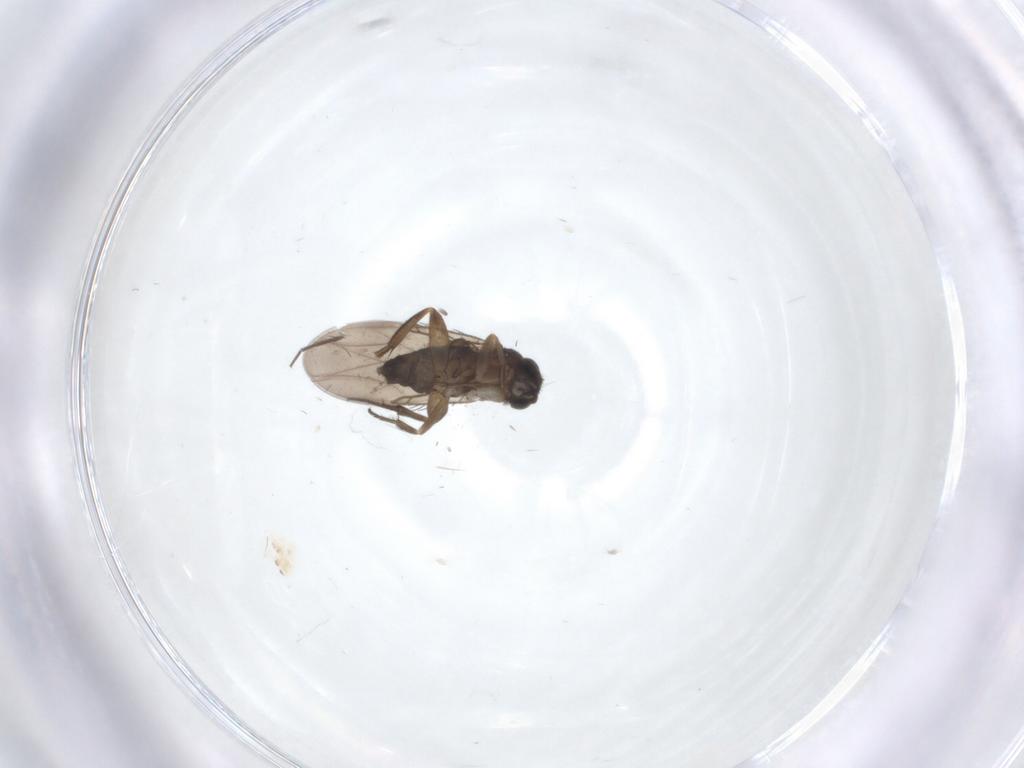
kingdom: Animalia
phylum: Arthropoda
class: Insecta
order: Diptera
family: Phoridae
